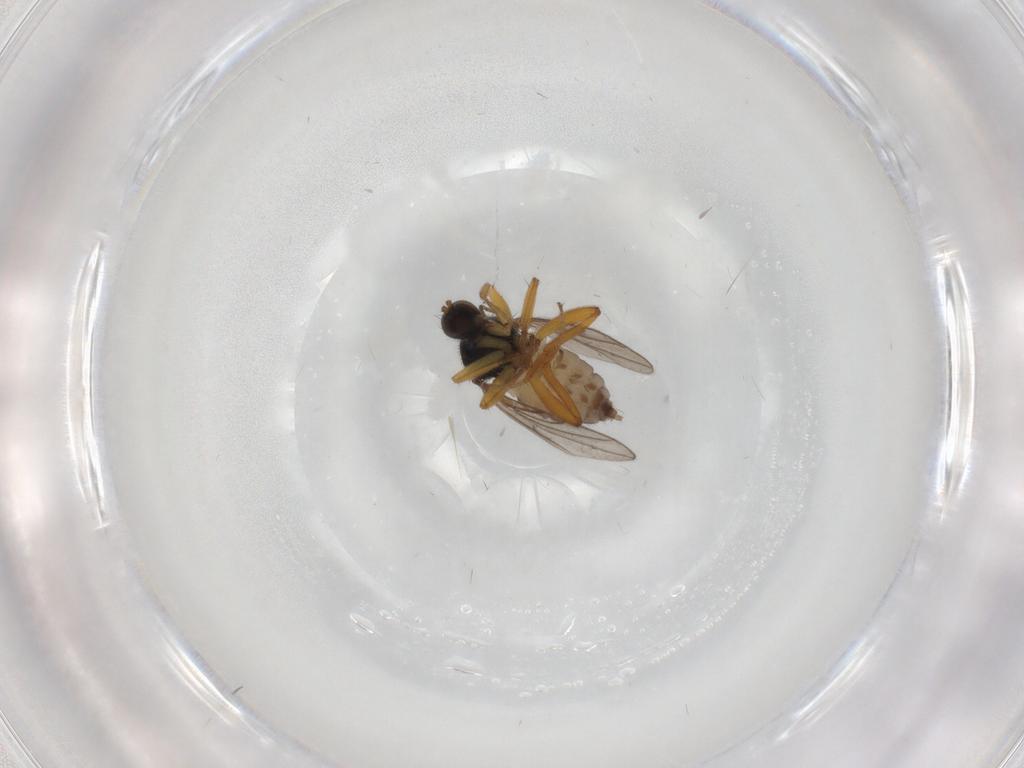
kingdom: Animalia
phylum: Arthropoda
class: Insecta
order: Diptera
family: Hybotidae
